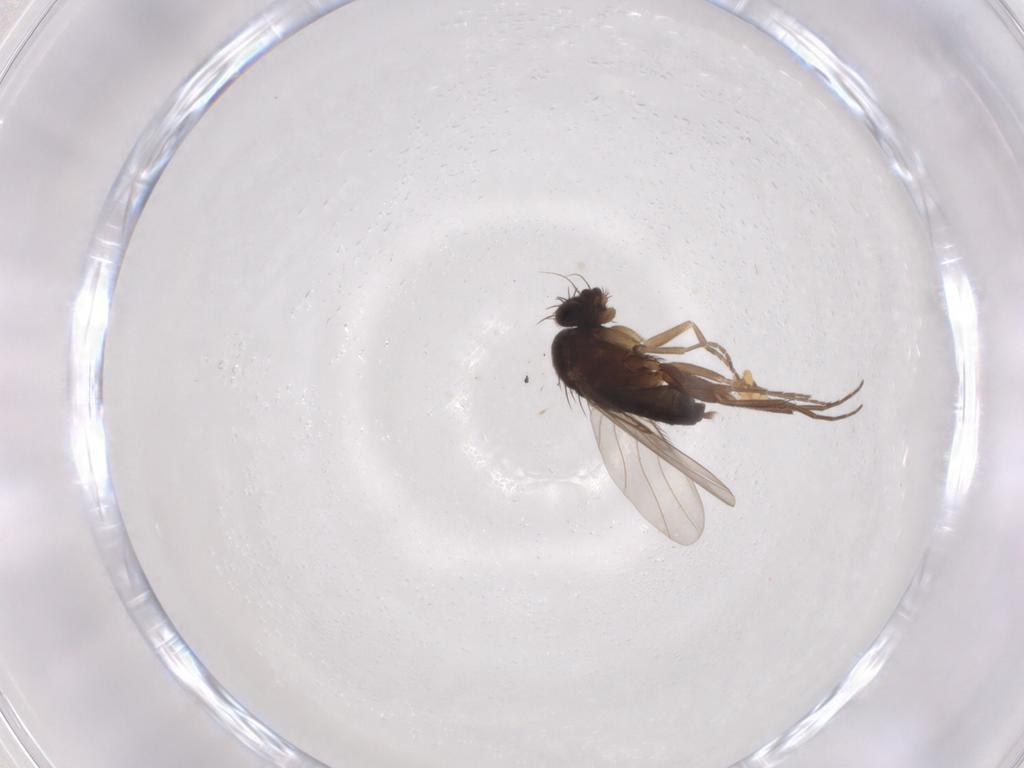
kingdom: Animalia
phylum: Arthropoda
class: Insecta
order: Diptera
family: Phoridae
